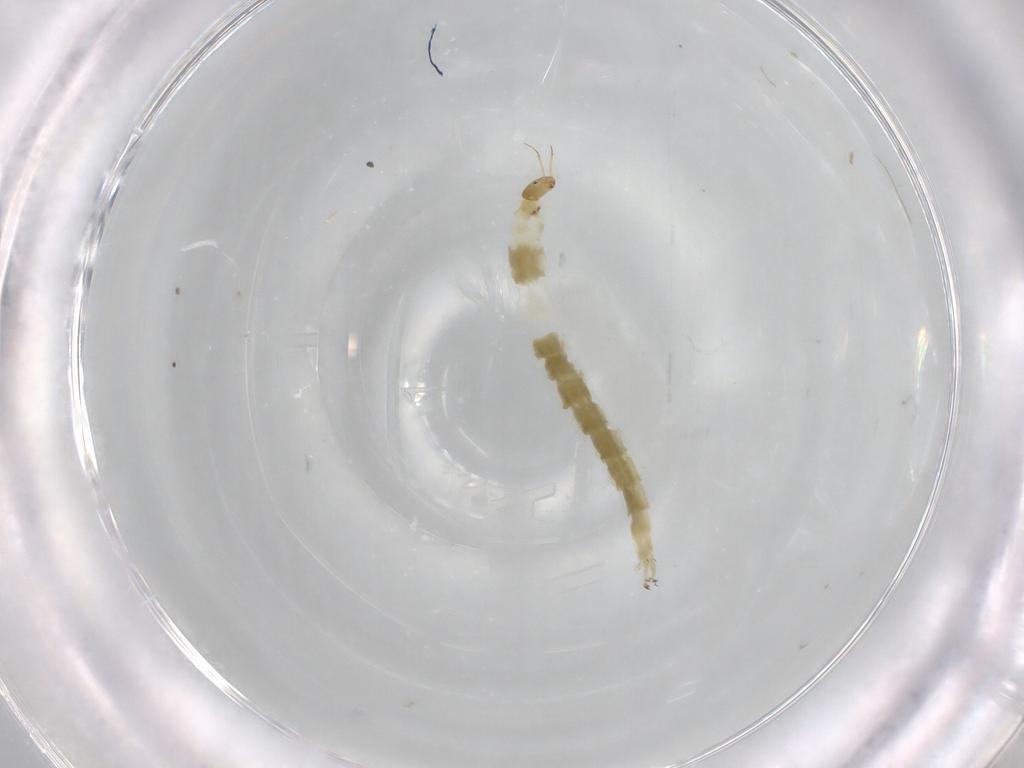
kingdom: Animalia
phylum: Arthropoda
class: Insecta
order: Diptera
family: Chironomidae
